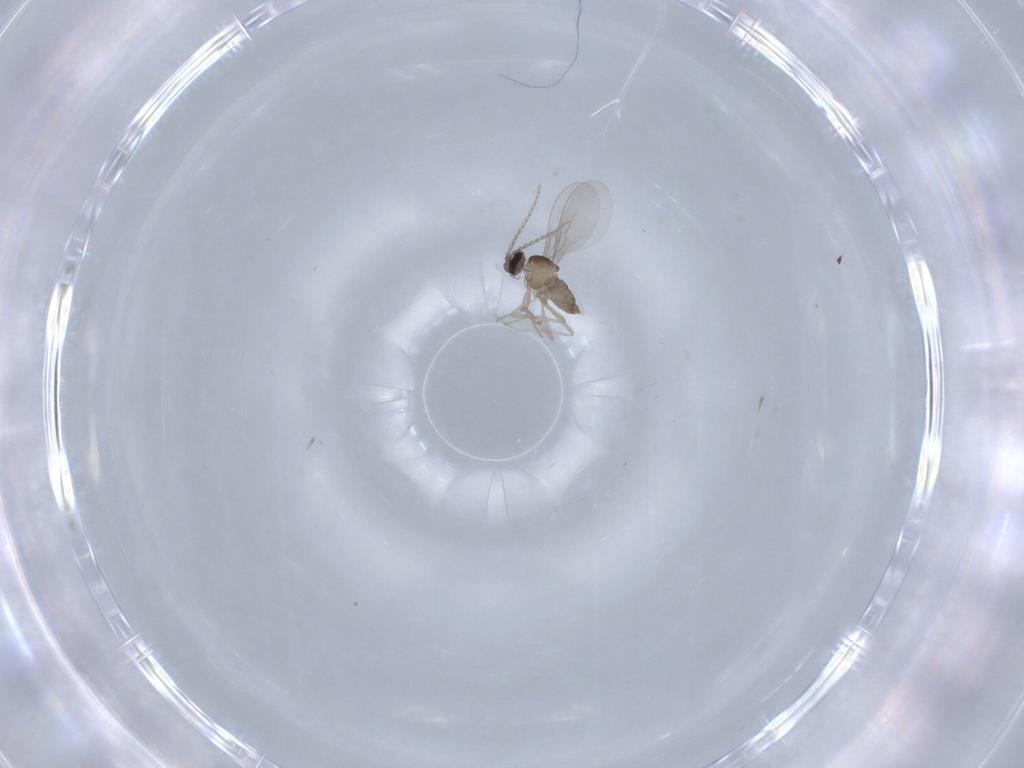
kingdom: Animalia
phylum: Arthropoda
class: Insecta
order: Diptera
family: Cecidomyiidae
